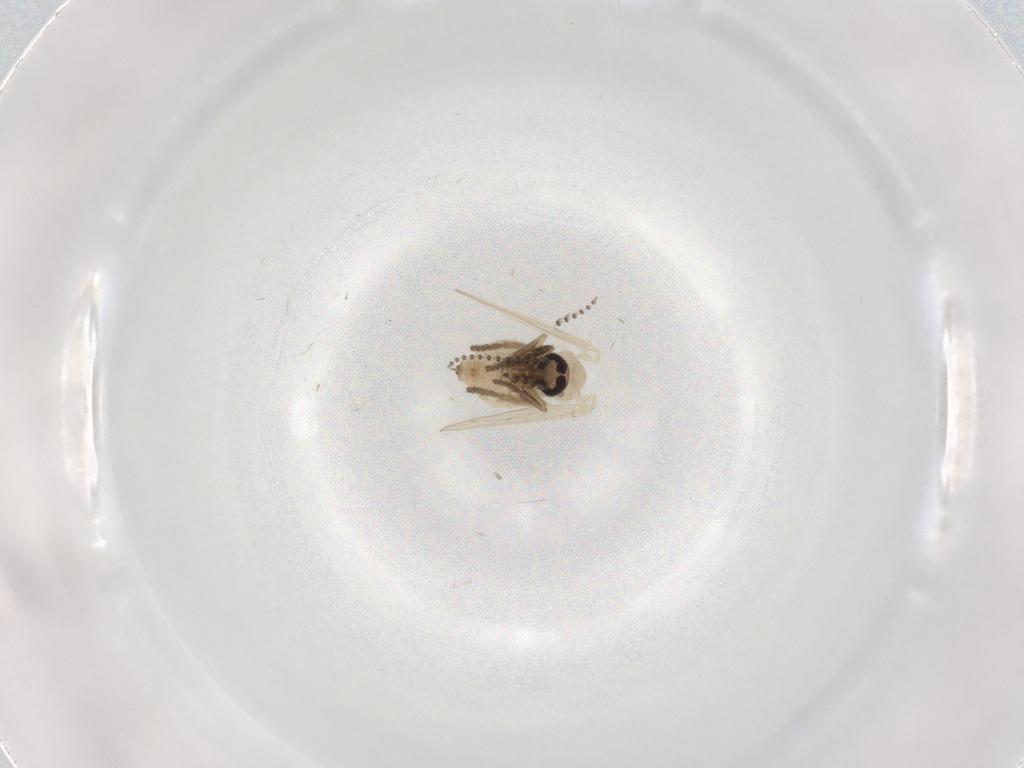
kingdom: Animalia
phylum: Arthropoda
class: Insecta
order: Diptera
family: Psychodidae
